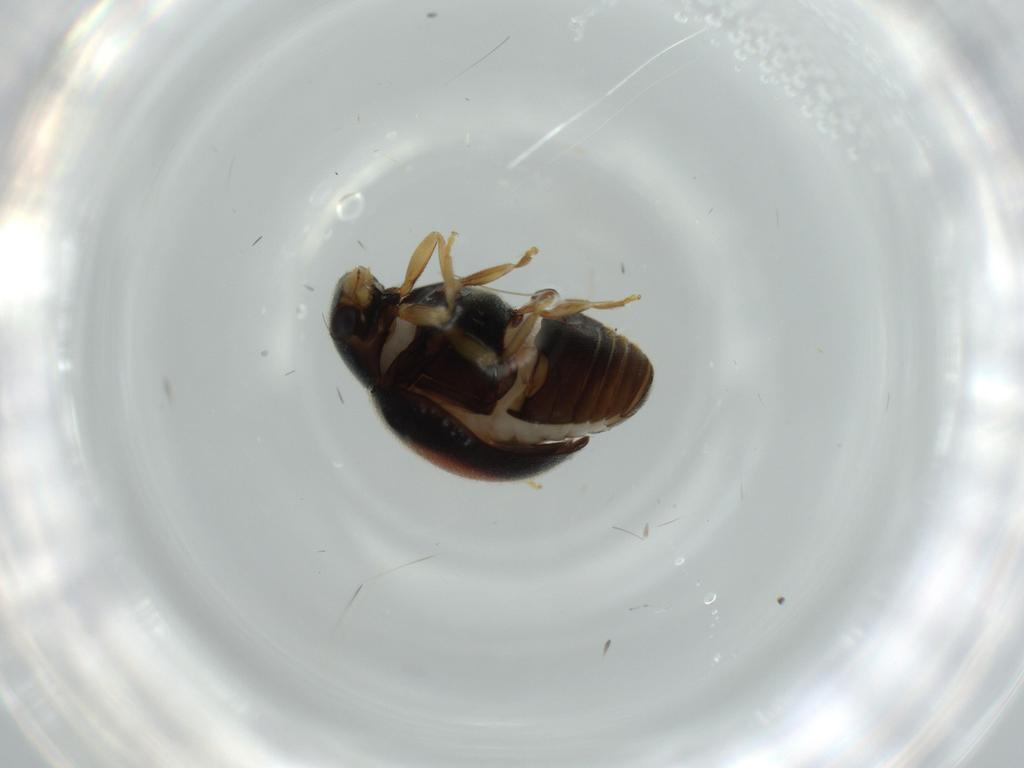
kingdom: Animalia
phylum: Arthropoda
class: Insecta
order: Coleoptera
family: Coccinellidae
